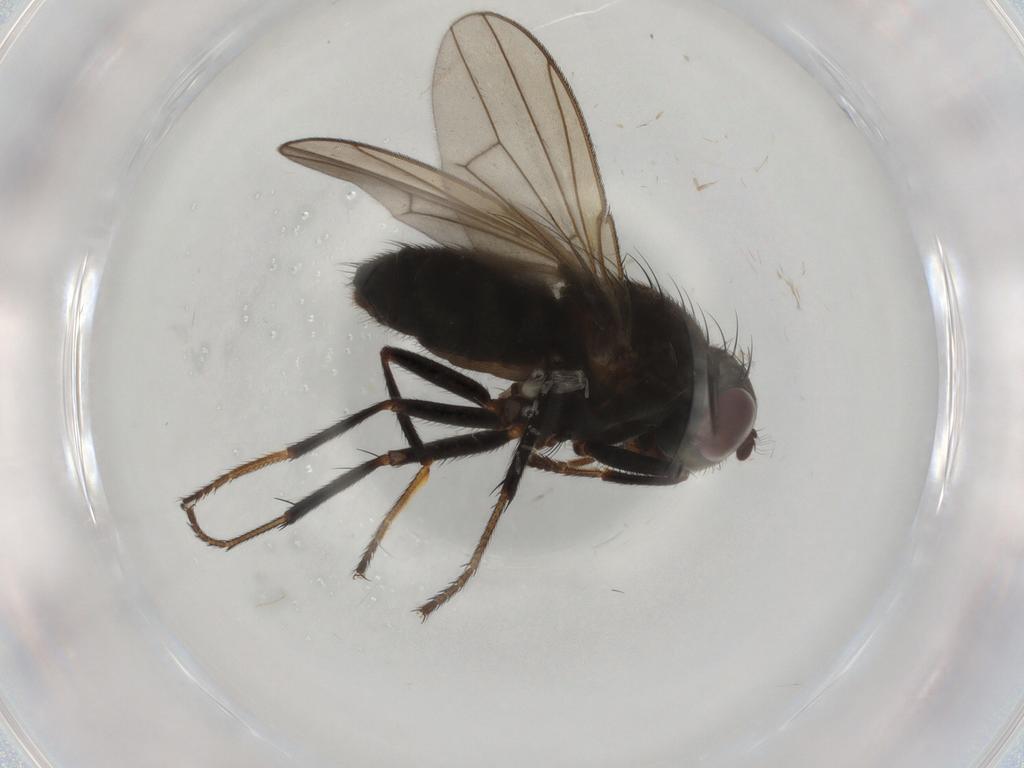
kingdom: Animalia
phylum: Arthropoda
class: Insecta
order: Diptera
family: Ephydridae
